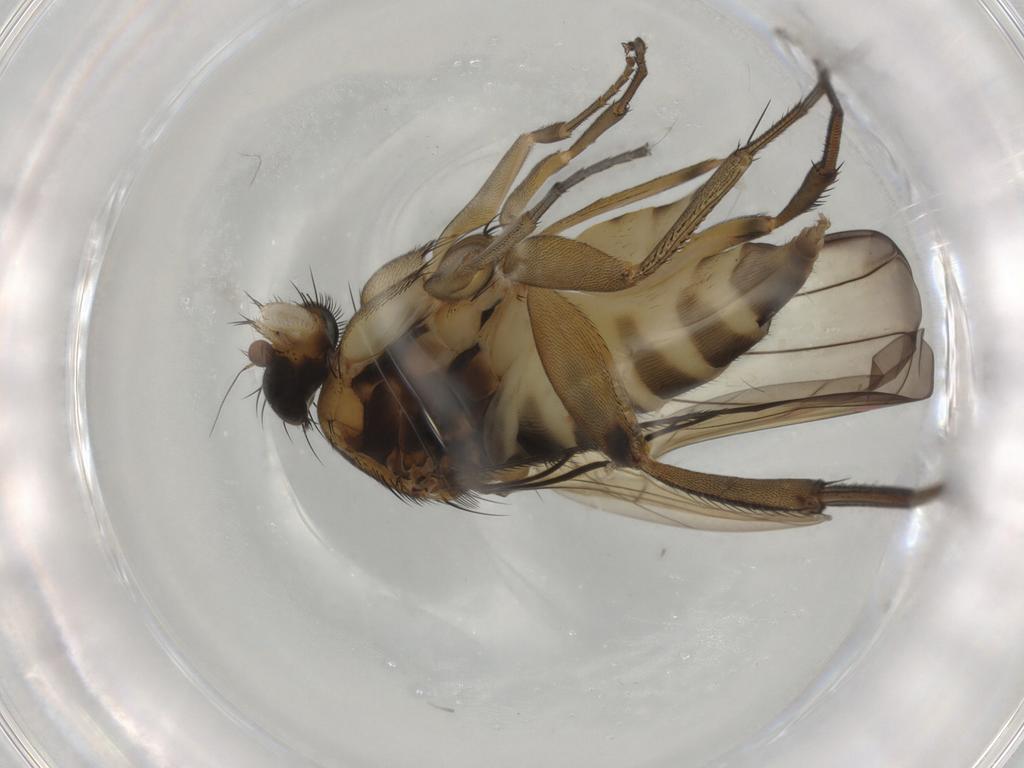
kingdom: Animalia
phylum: Arthropoda
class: Insecta
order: Diptera
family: Phoridae
